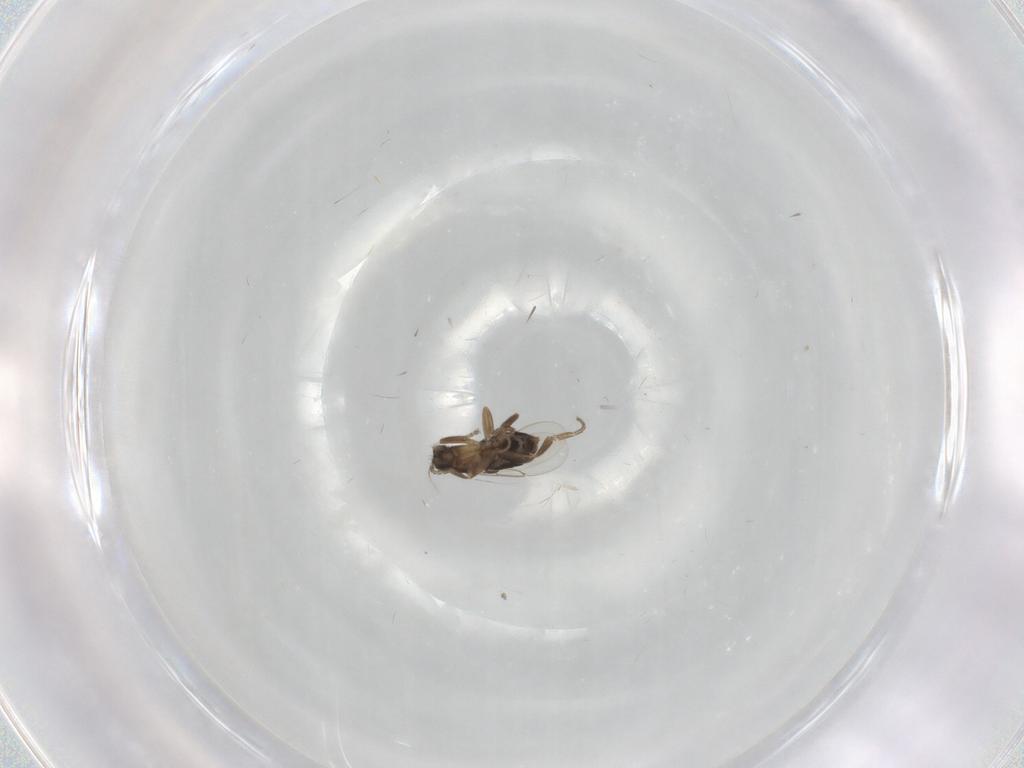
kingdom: Animalia
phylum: Arthropoda
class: Insecta
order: Diptera
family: Phoridae
